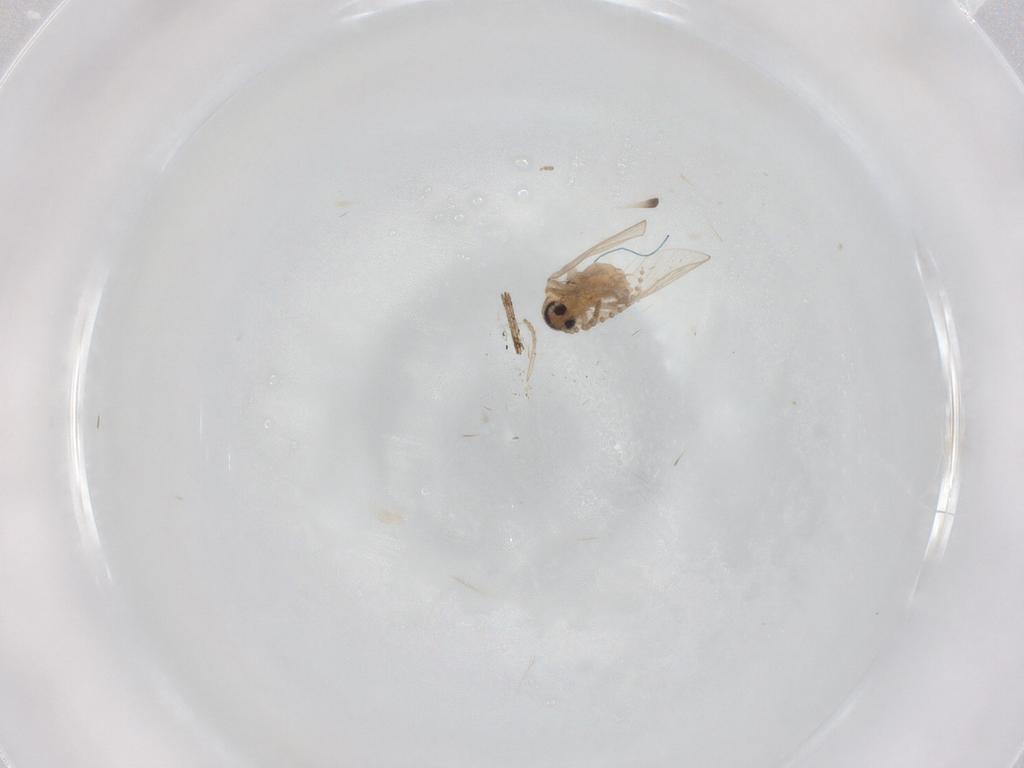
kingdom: Animalia
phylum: Arthropoda
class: Insecta
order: Diptera
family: Psychodidae
